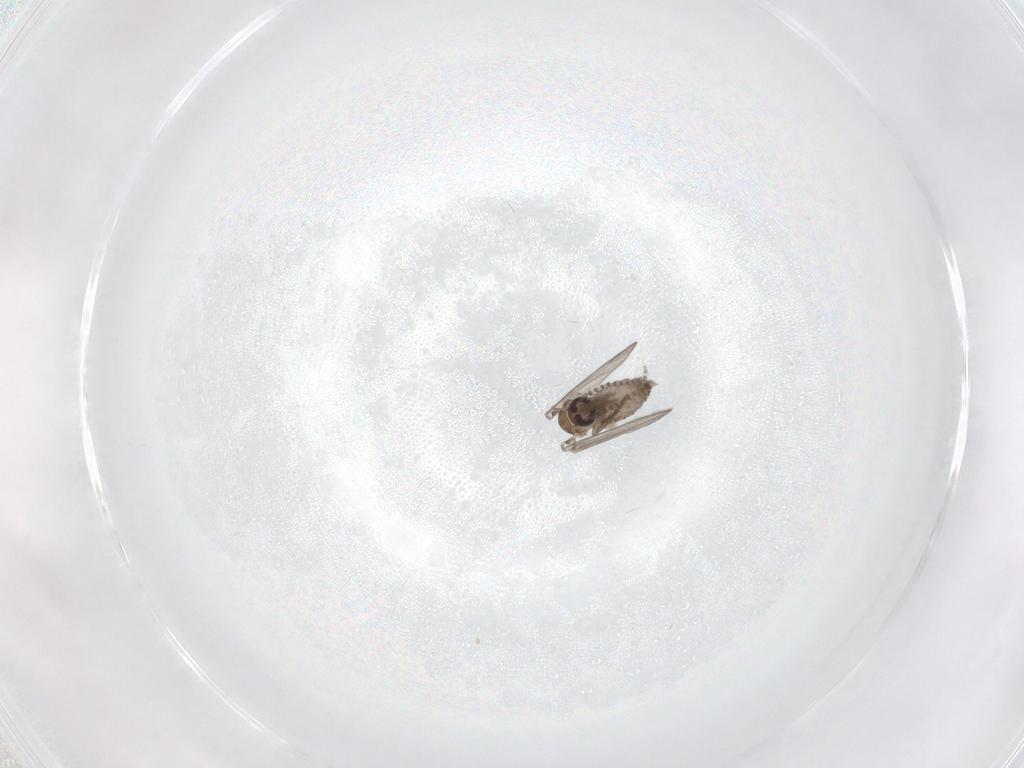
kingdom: Animalia
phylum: Arthropoda
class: Insecta
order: Diptera
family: Psychodidae
